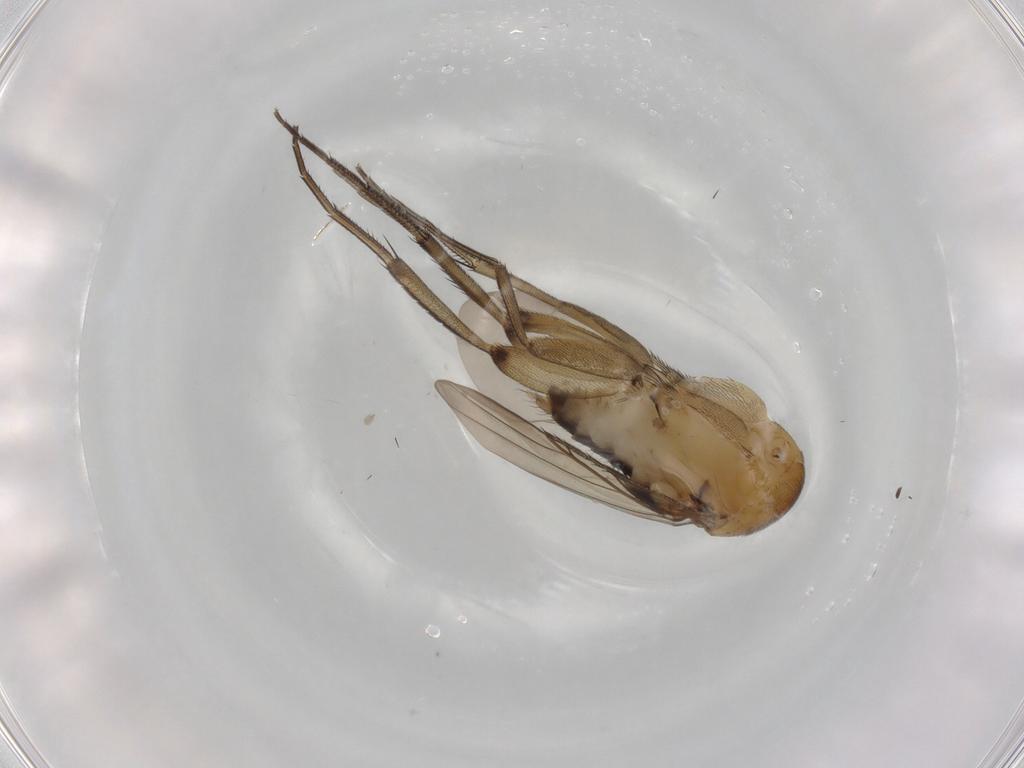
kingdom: Animalia
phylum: Arthropoda
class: Insecta
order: Diptera
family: Phoridae
